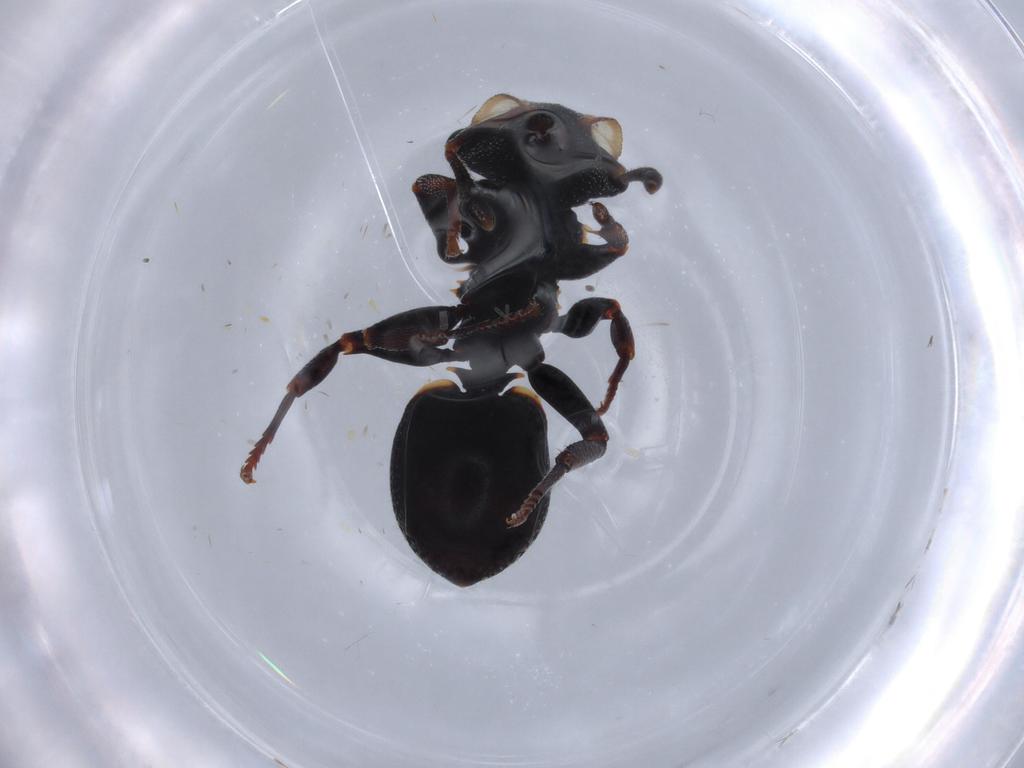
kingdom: Animalia
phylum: Arthropoda
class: Insecta
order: Hymenoptera
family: Formicidae
